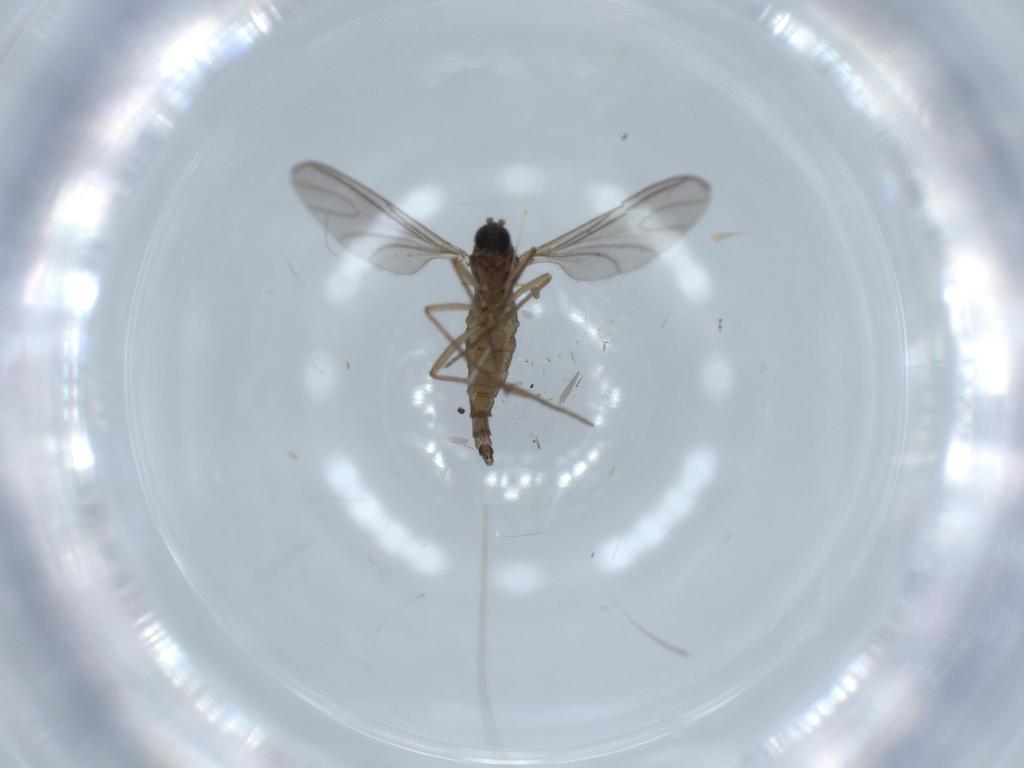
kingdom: Animalia
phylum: Arthropoda
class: Insecta
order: Diptera
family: Sciaridae
